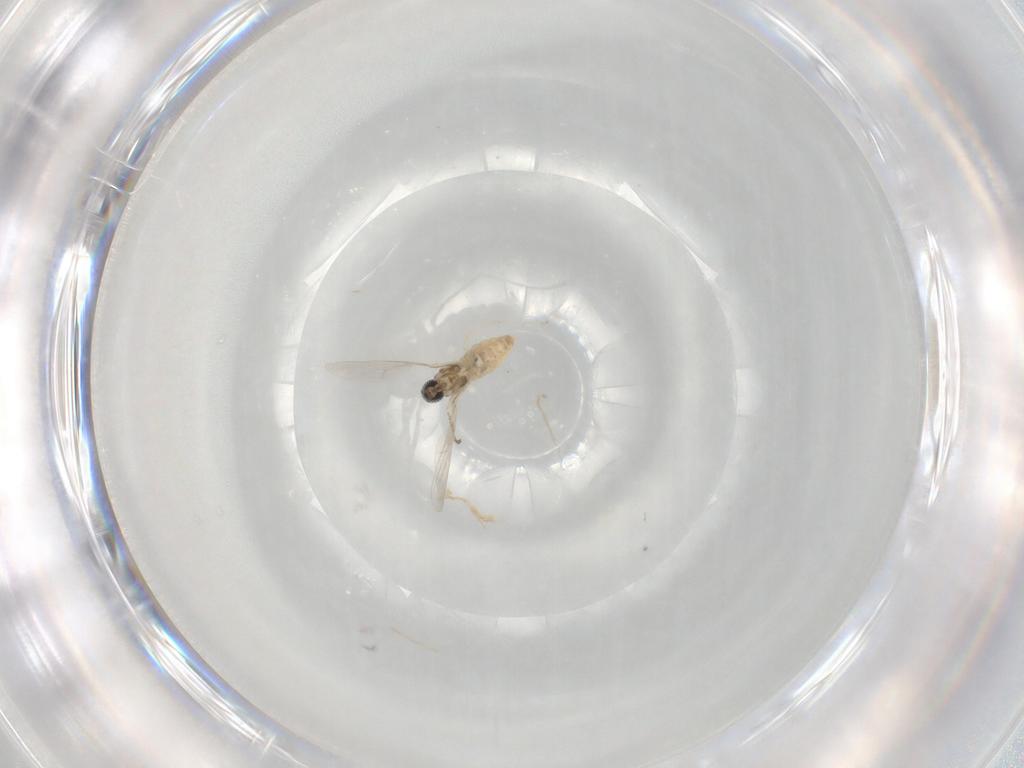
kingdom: Animalia
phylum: Arthropoda
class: Insecta
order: Diptera
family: Cecidomyiidae
